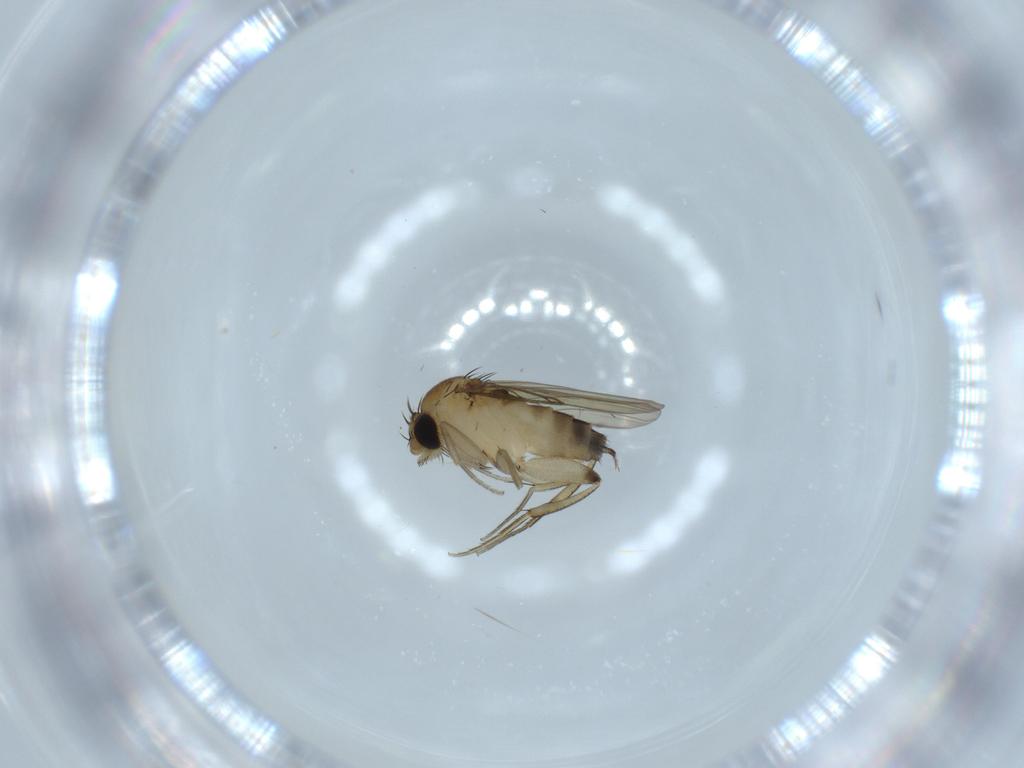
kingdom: Animalia
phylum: Arthropoda
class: Insecta
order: Diptera
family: Phoridae
